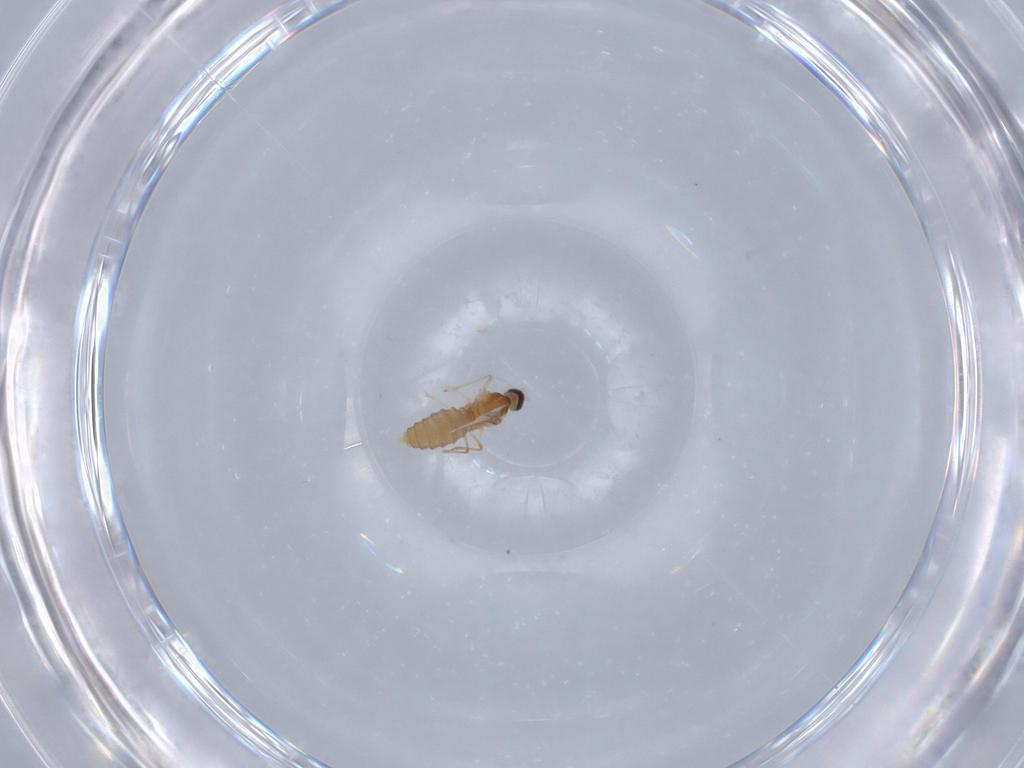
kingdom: Animalia
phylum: Arthropoda
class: Insecta
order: Diptera
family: Cecidomyiidae
